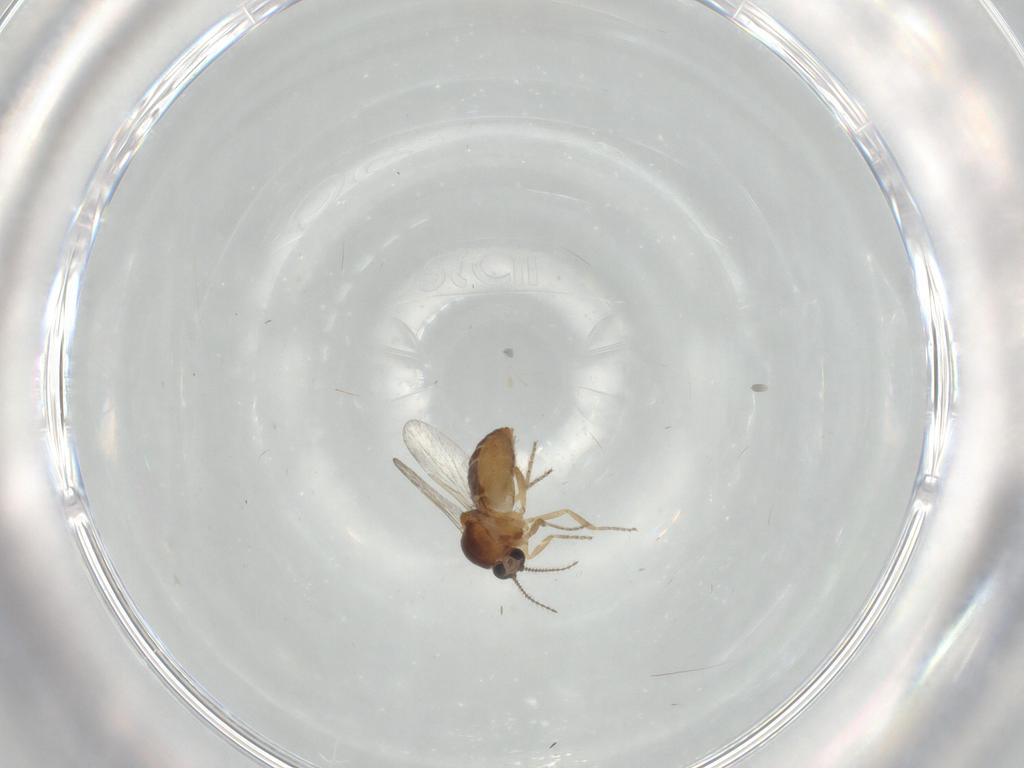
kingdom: Animalia
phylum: Arthropoda
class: Insecta
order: Diptera
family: Ceratopogonidae
